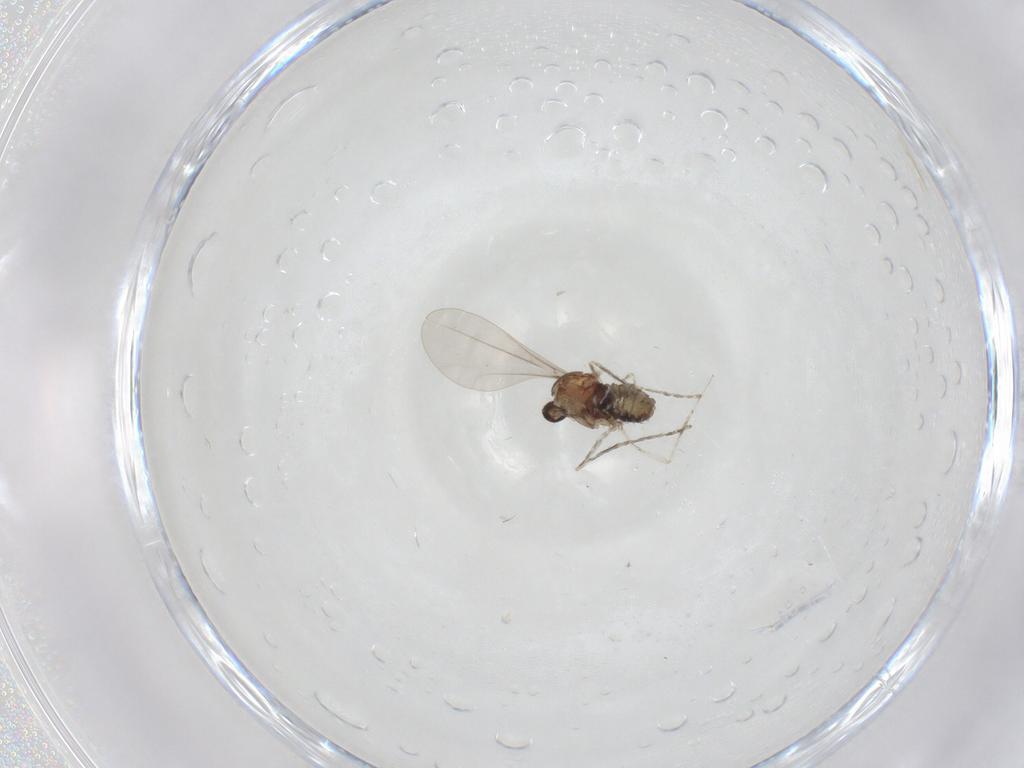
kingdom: Animalia
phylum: Arthropoda
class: Insecta
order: Diptera
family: Cecidomyiidae
